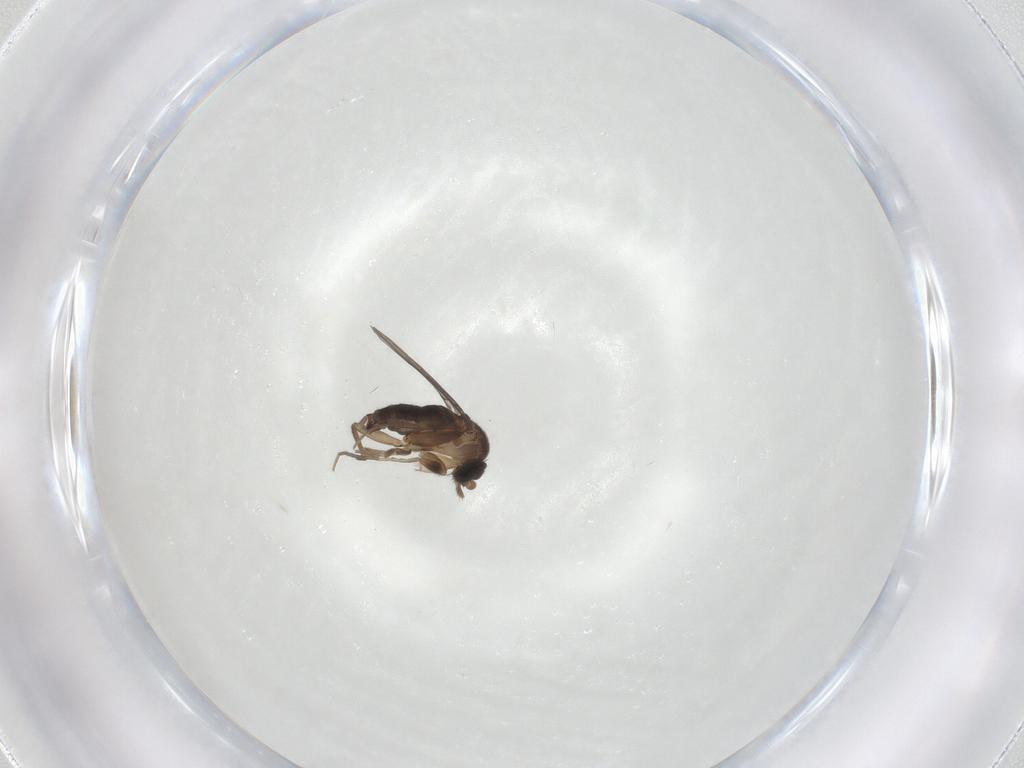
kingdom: Animalia
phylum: Arthropoda
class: Insecta
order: Diptera
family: Phoridae
